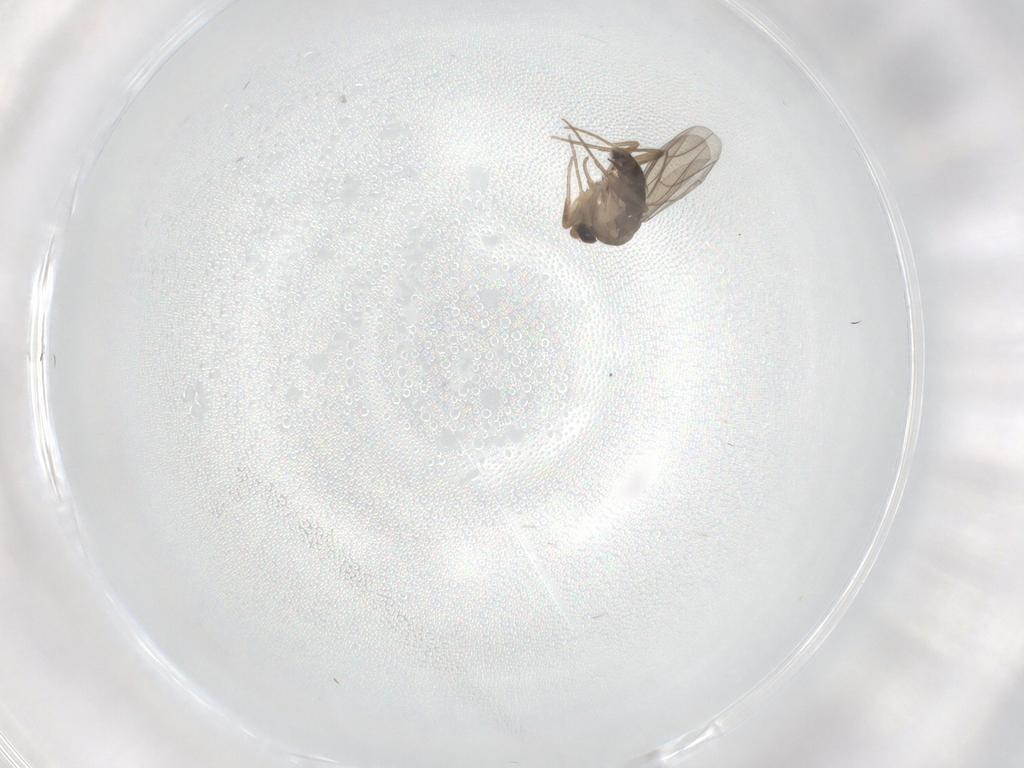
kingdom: Animalia
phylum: Arthropoda
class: Insecta
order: Diptera
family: Phoridae
